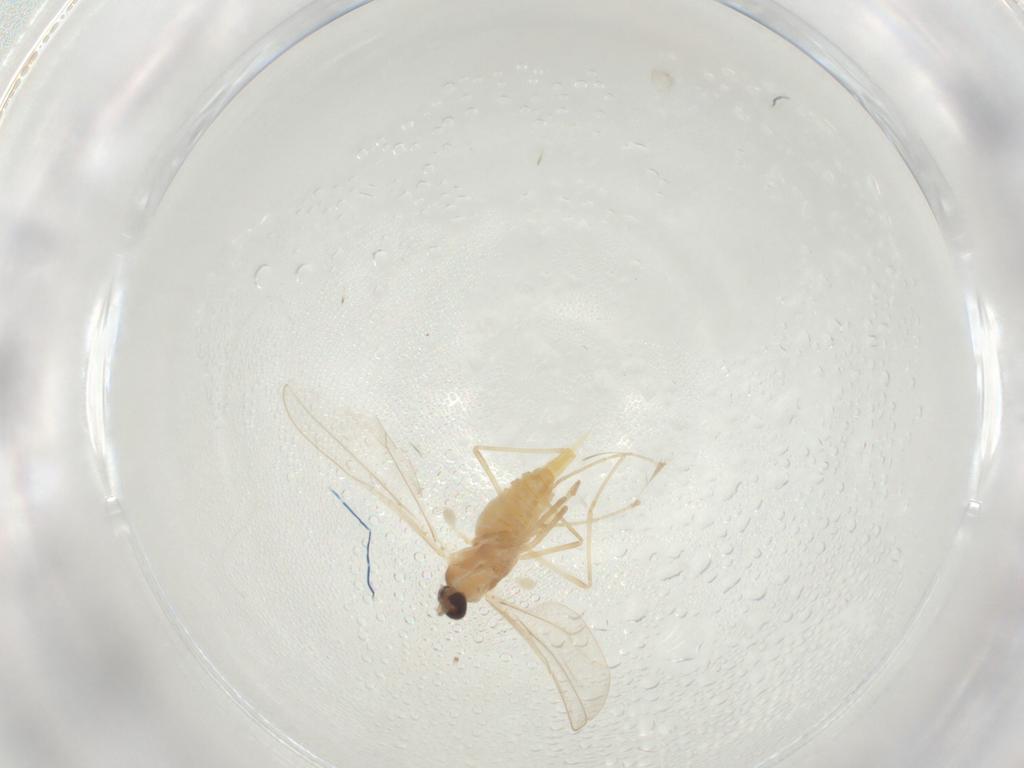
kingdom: Animalia
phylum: Arthropoda
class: Insecta
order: Diptera
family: Cecidomyiidae
